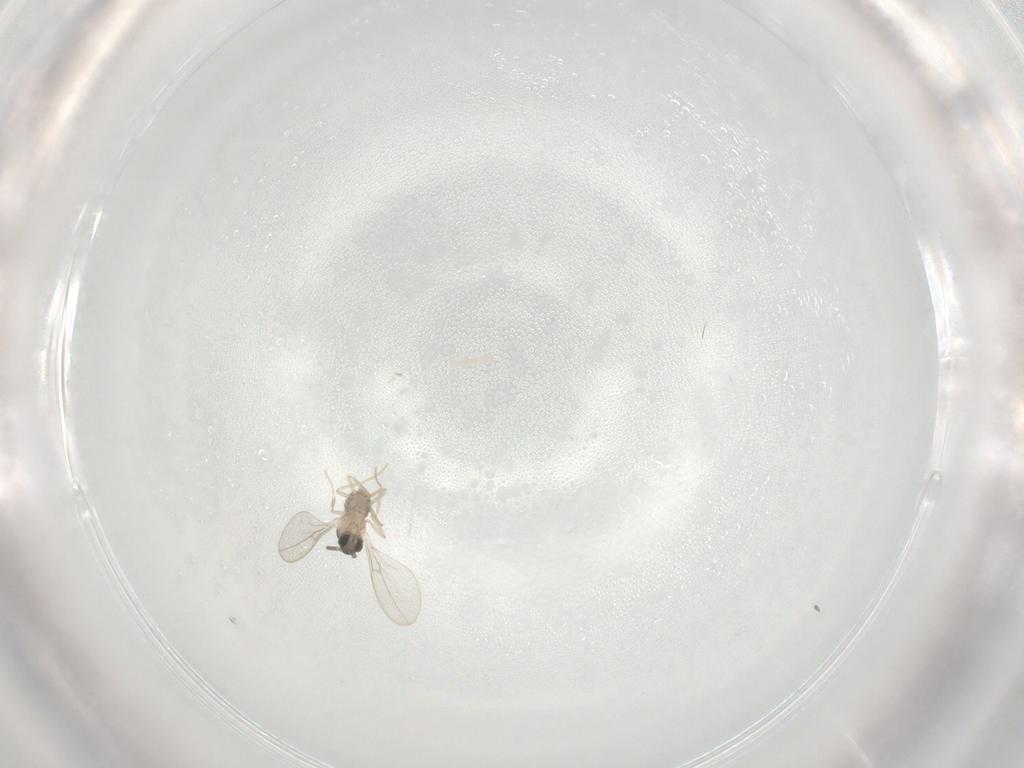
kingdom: Animalia
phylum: Arthropoda
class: Insecta
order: Diptera
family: Cecidomyiidae
